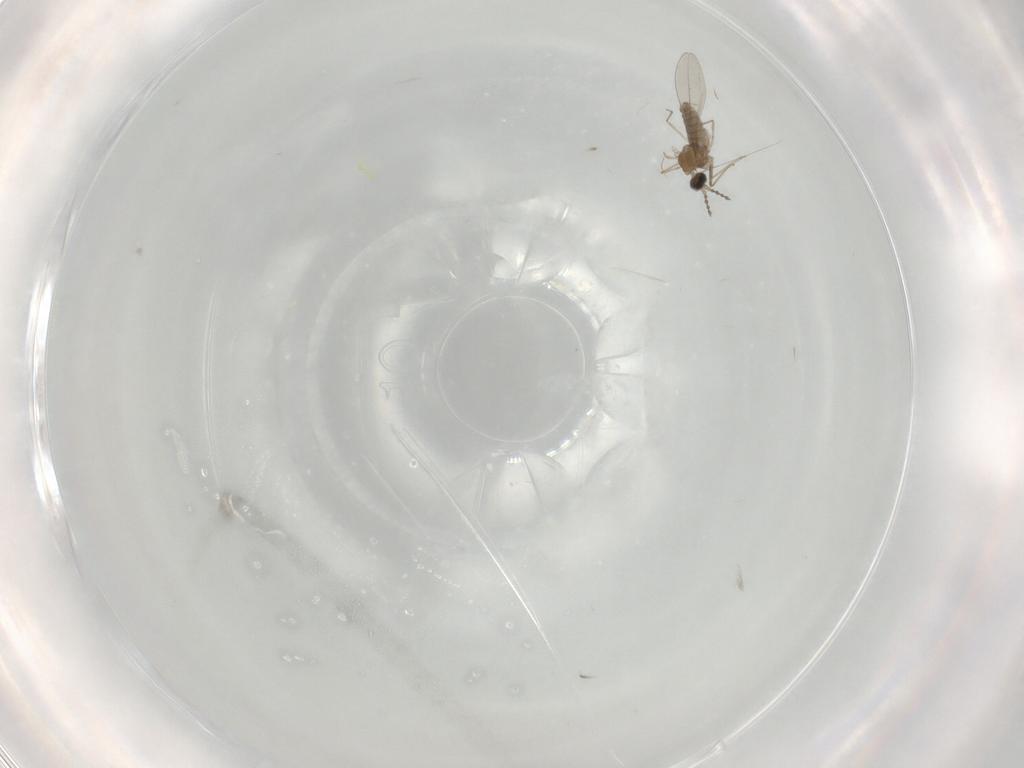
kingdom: Animalia
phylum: Arthropoda
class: Insecta
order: Diptera
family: Cecidomyiidae
